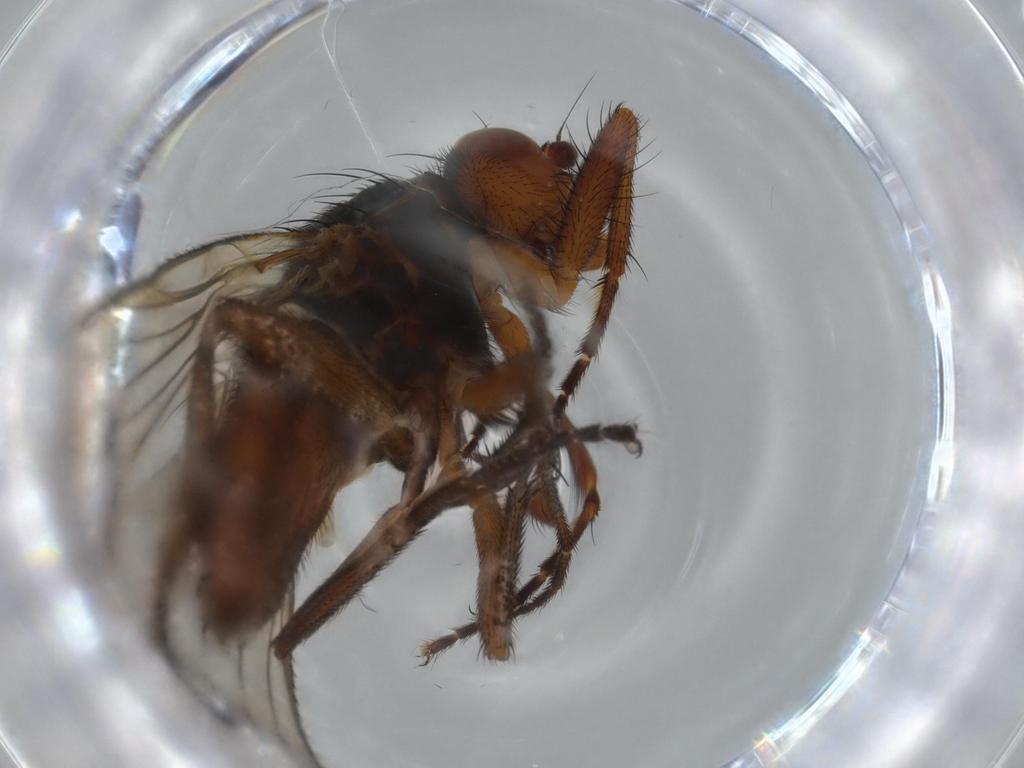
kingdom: Animalia
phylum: Arthropoda
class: Insecta
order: Diptera
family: Heleomyzidae
